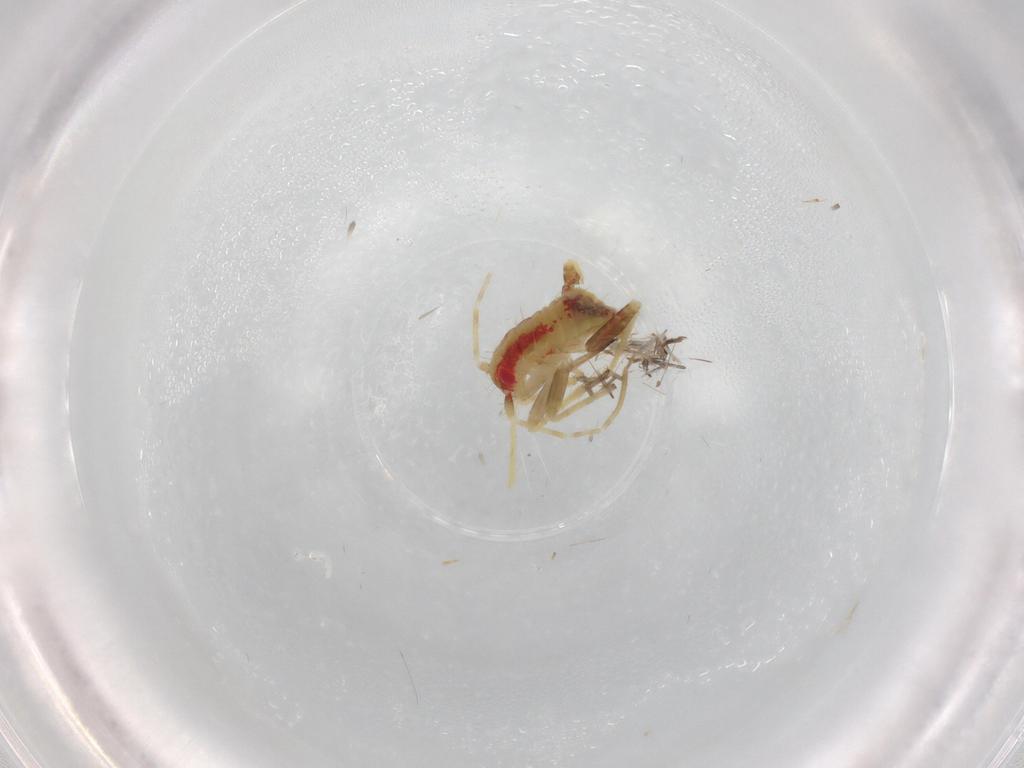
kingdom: Animalia
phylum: Arthropoda
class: Insecta
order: Hemiptera
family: Miridae
